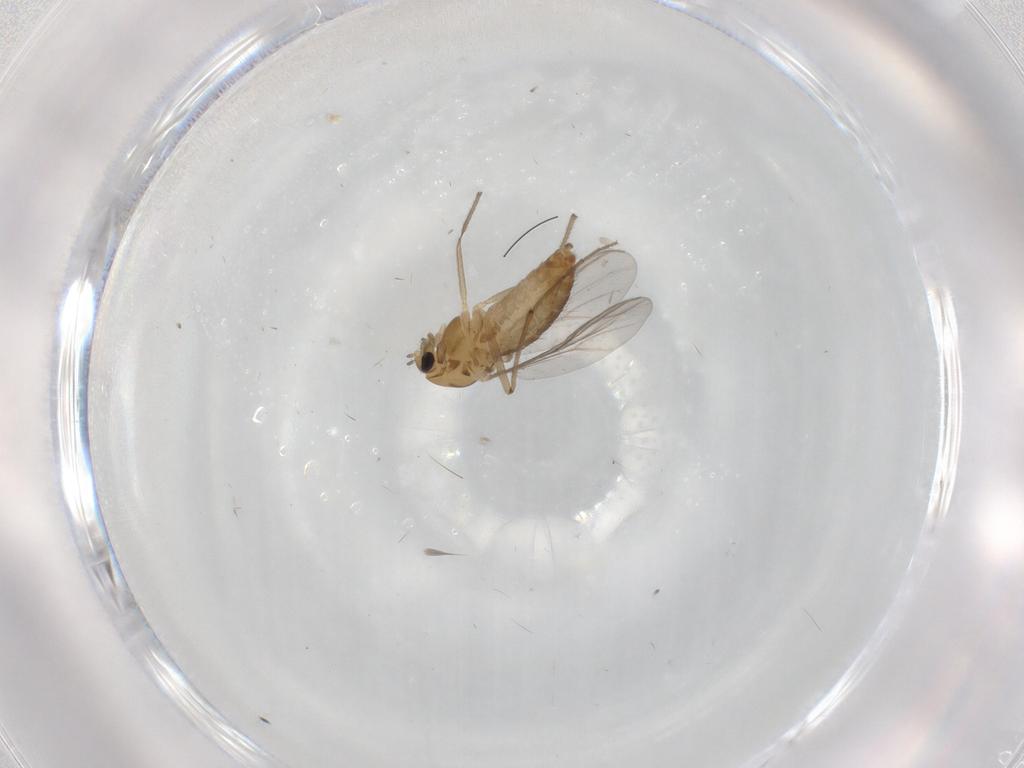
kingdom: Animalia
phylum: Arthropoda
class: Insecta
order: Diptera
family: Chironomidae
